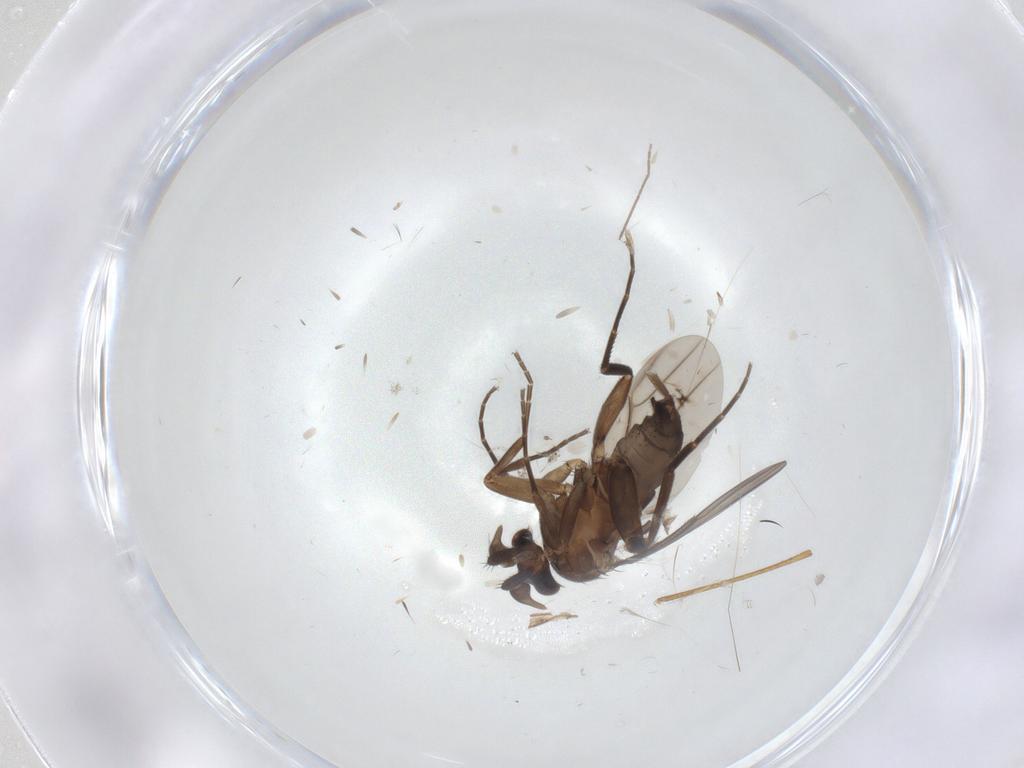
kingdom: Animalia
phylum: Arthropoda
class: Insecta
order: Diptera
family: Phoridae
